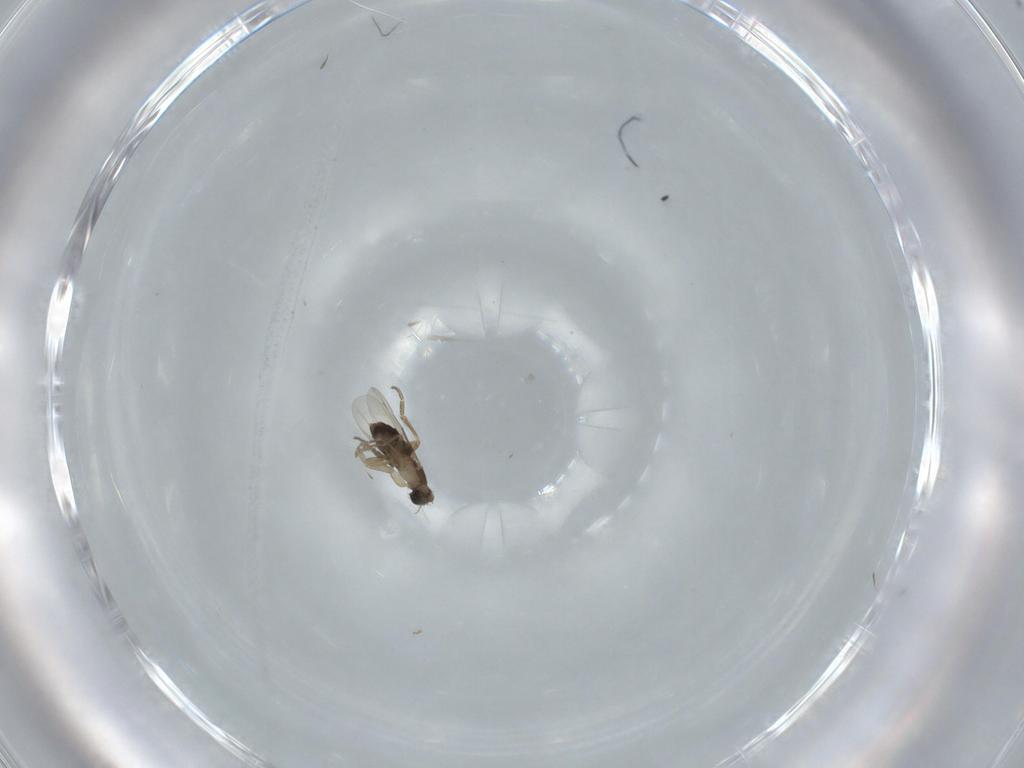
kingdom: Animalia
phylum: Arthropoda
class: Insecta
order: Diptera
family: Phoridae
